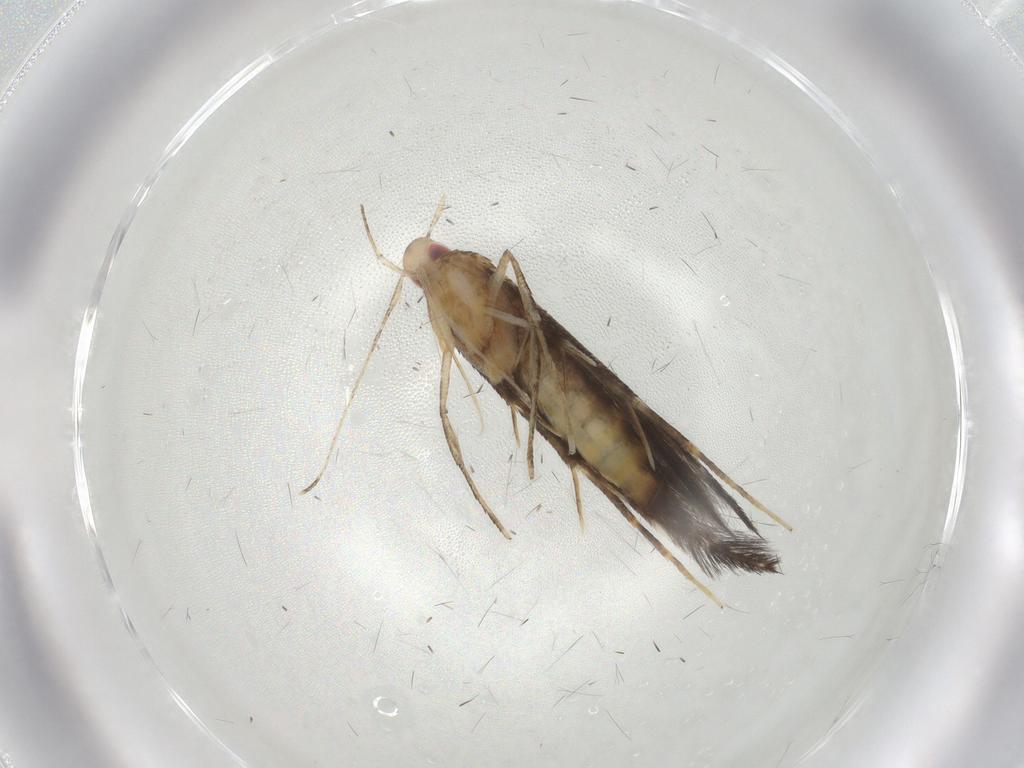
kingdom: Animalia
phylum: Arthropoda
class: Insecta
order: Lepidoptera
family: Cosmopterigidae
